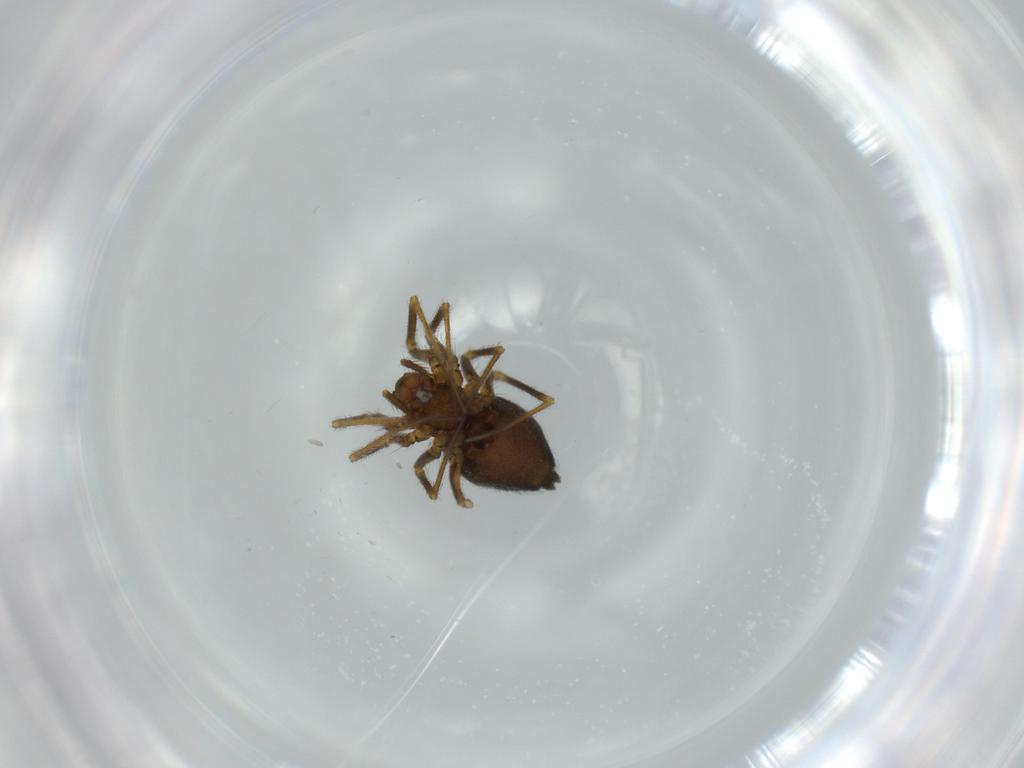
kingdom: Animalia
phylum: Arthropoda
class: Arachnida
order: Araneae
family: Linyphiidae
